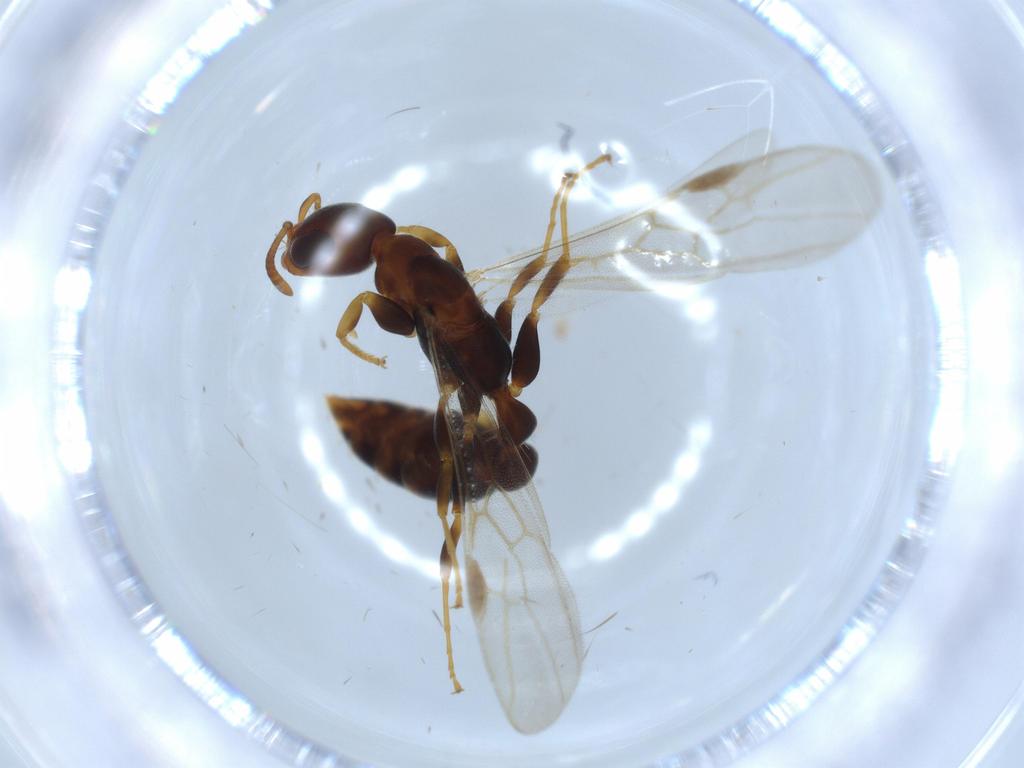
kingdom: Animalia
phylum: Arthropoda
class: Insecta
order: Hymenoptera
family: Formicidae
